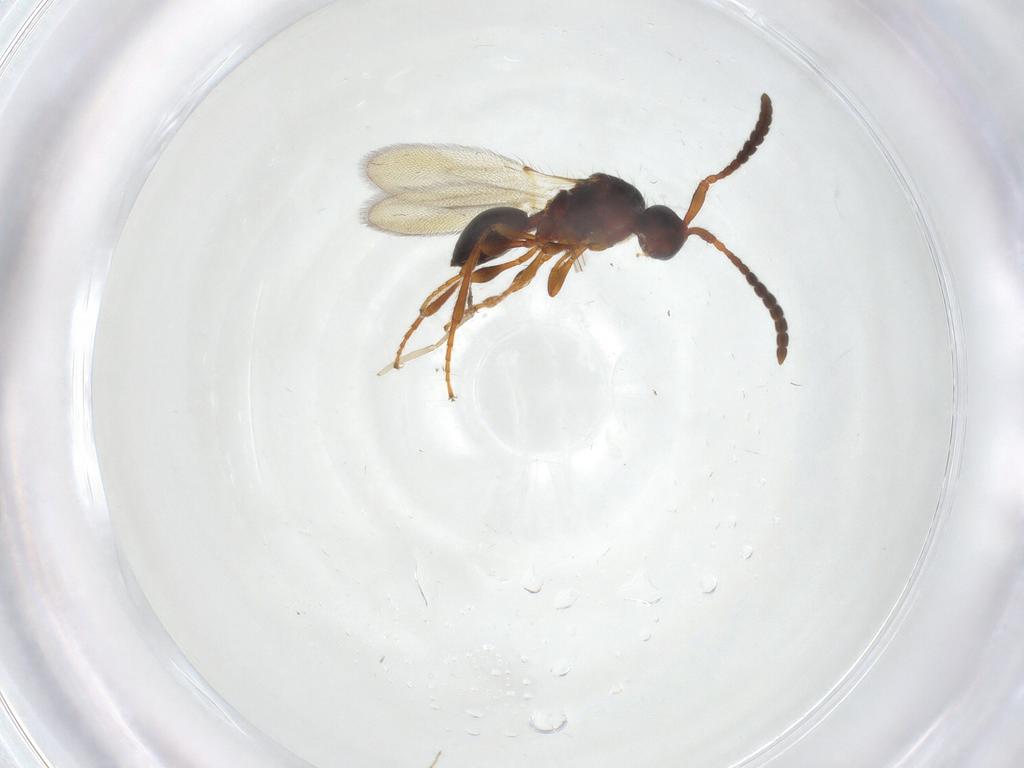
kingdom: Animalia
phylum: Arthropoda
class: Insecta
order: Hymenoptera
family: Diapriidae
